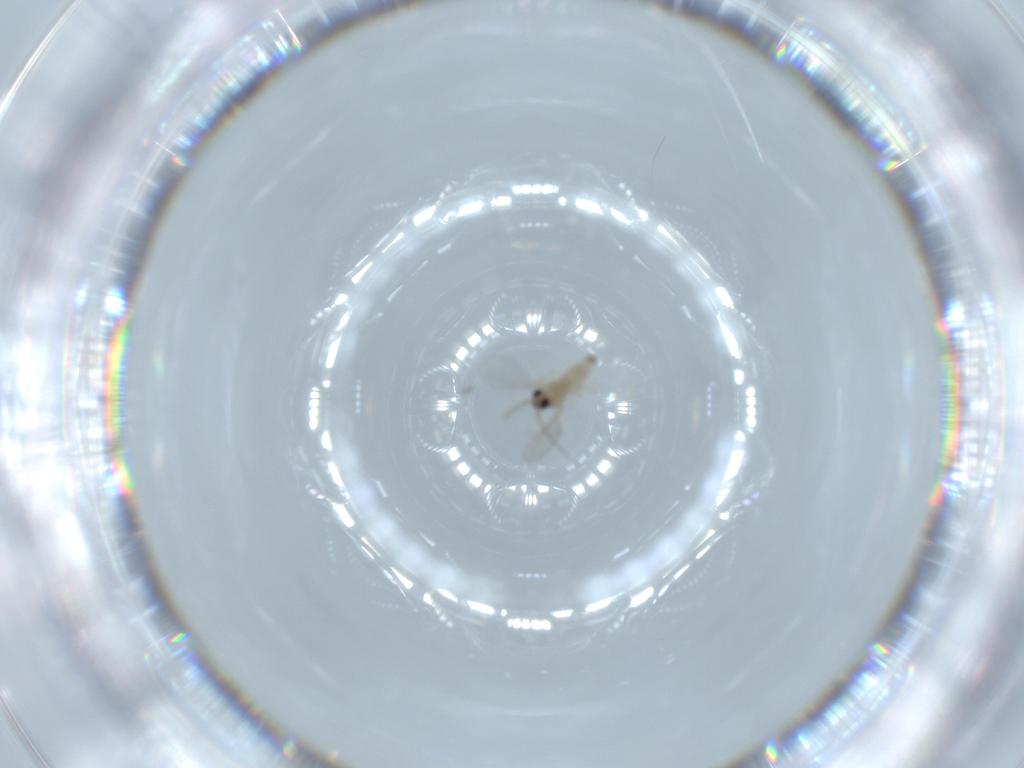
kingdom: Animalia
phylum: Arthropoda
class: Insecta
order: Diptera
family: Cecidomyiidae
